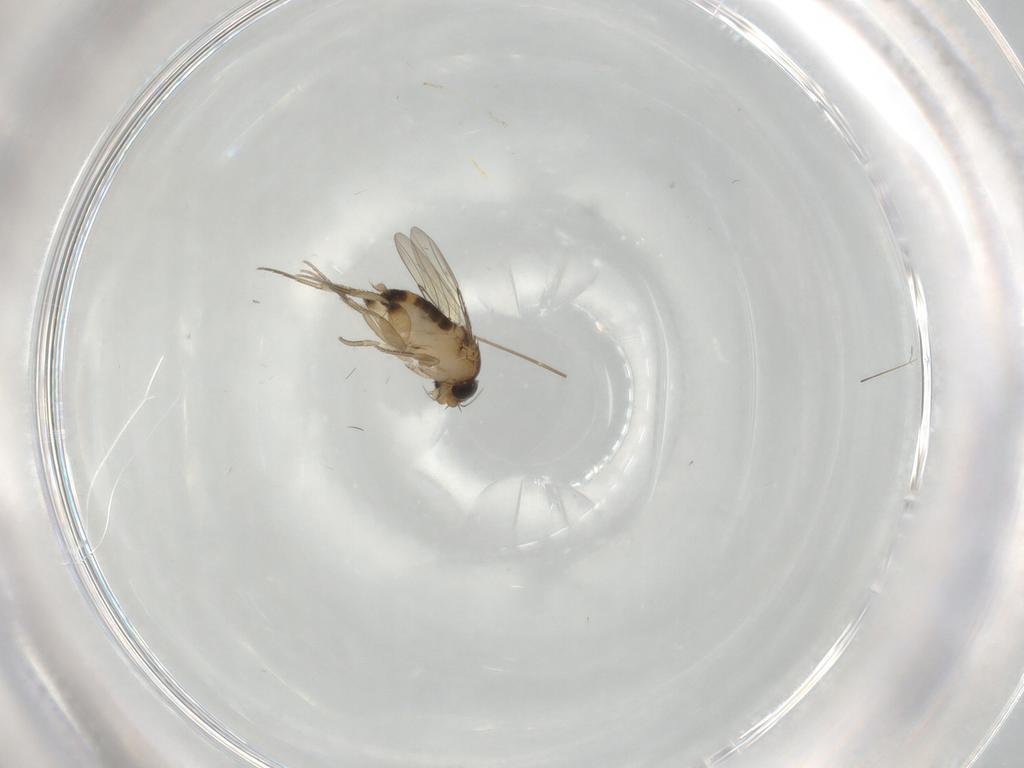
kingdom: Animalia
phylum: Arthropoda
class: Insecta
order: Diptera
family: Phoridae
